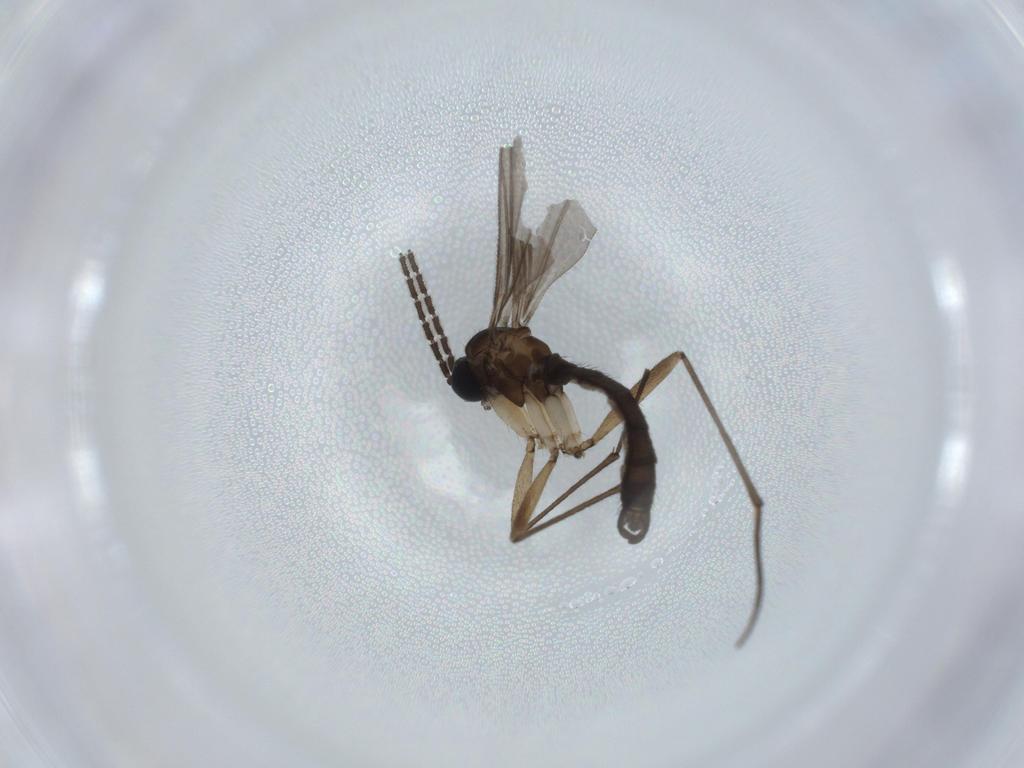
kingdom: Animalia
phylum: Arthropoda
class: Insecta
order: Diptera
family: Sciaridae
